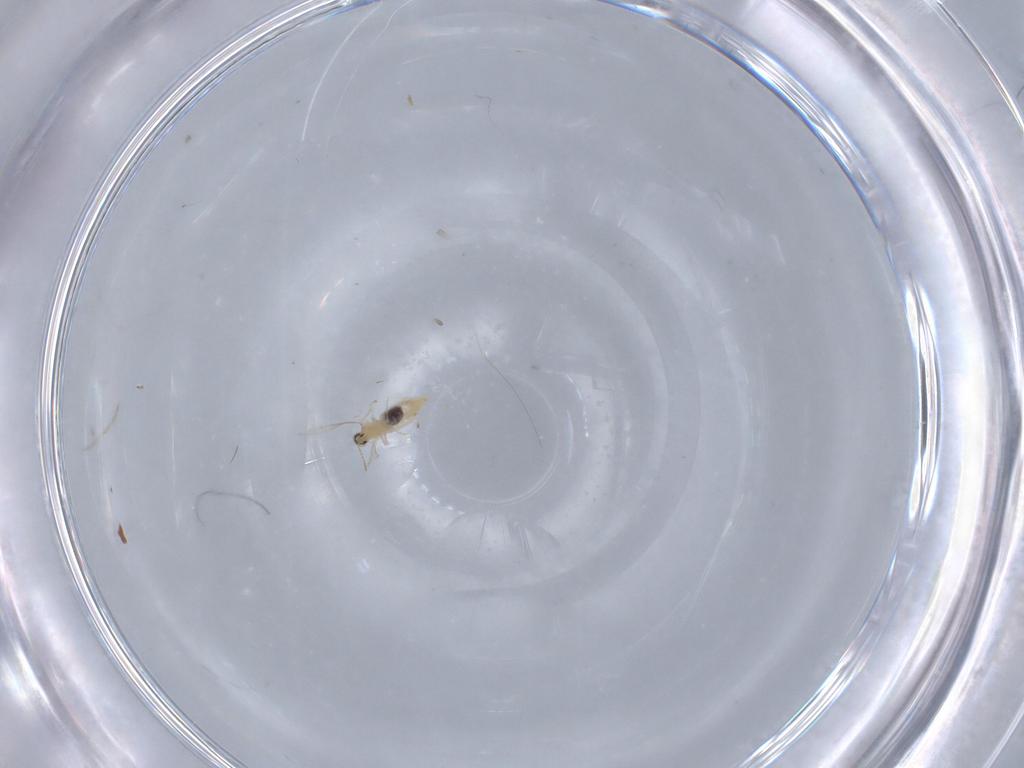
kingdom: Animalia
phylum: Arthropoda
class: Insecta
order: Diptera
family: Cecidomyiidae
